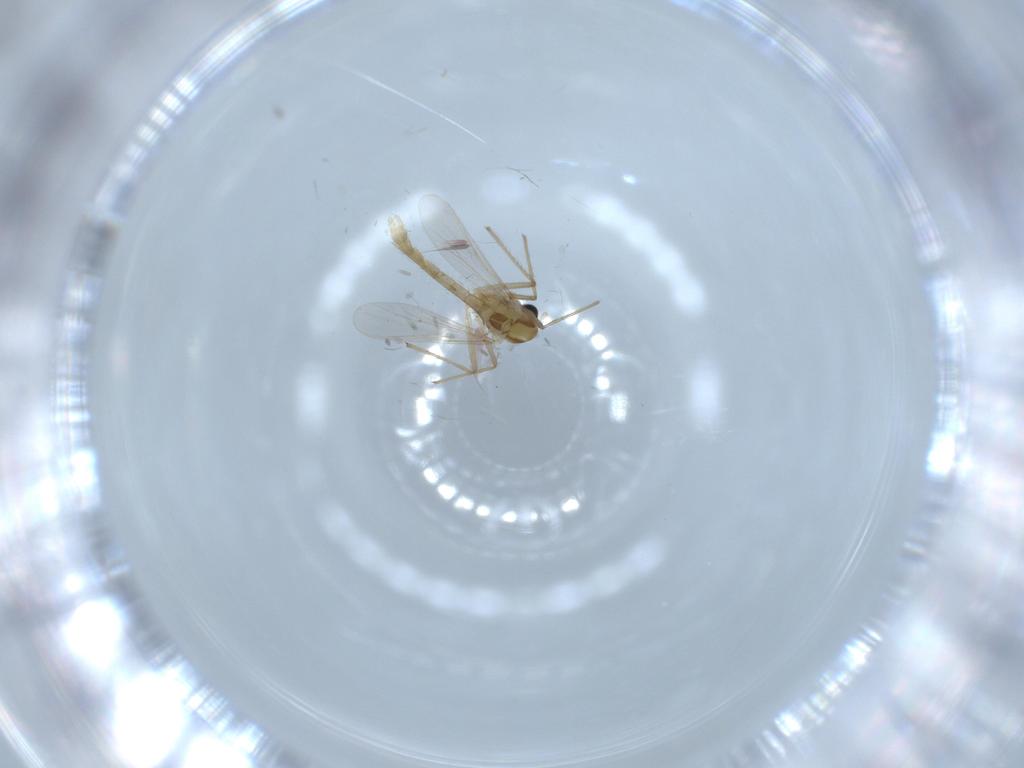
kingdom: Animalia
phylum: Arthropoda
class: Insecta
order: Diptera
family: Chironomidae
